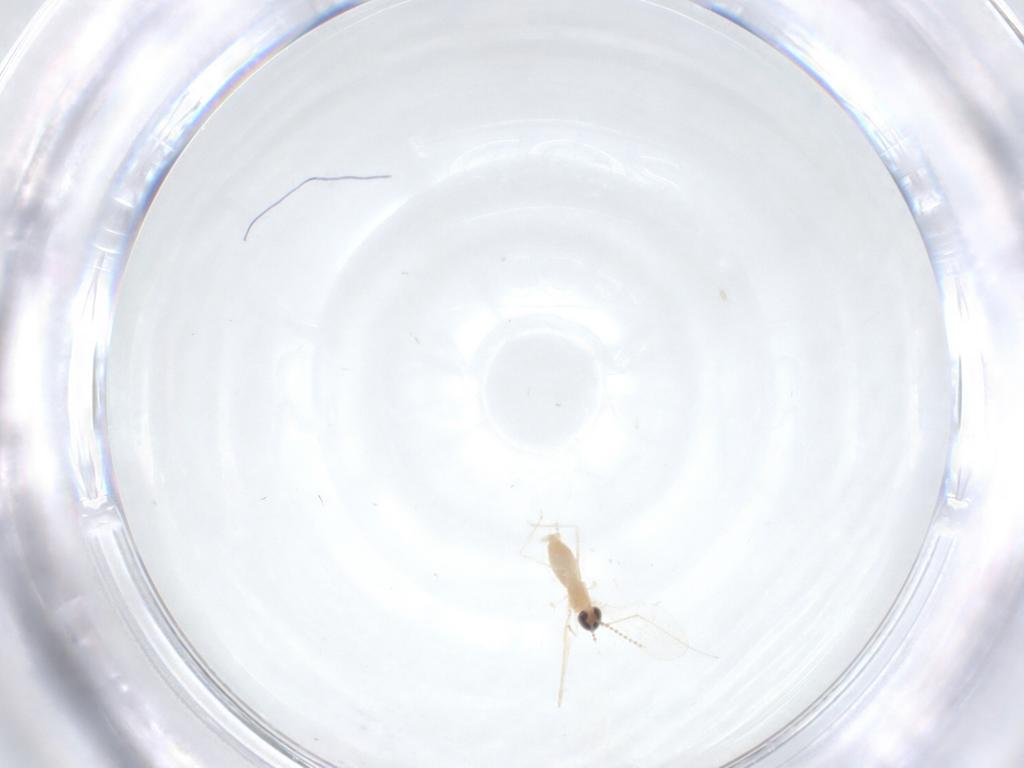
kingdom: Animalia
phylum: Arthropoda
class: Insecta
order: Diptera
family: Cecidomyiidae
